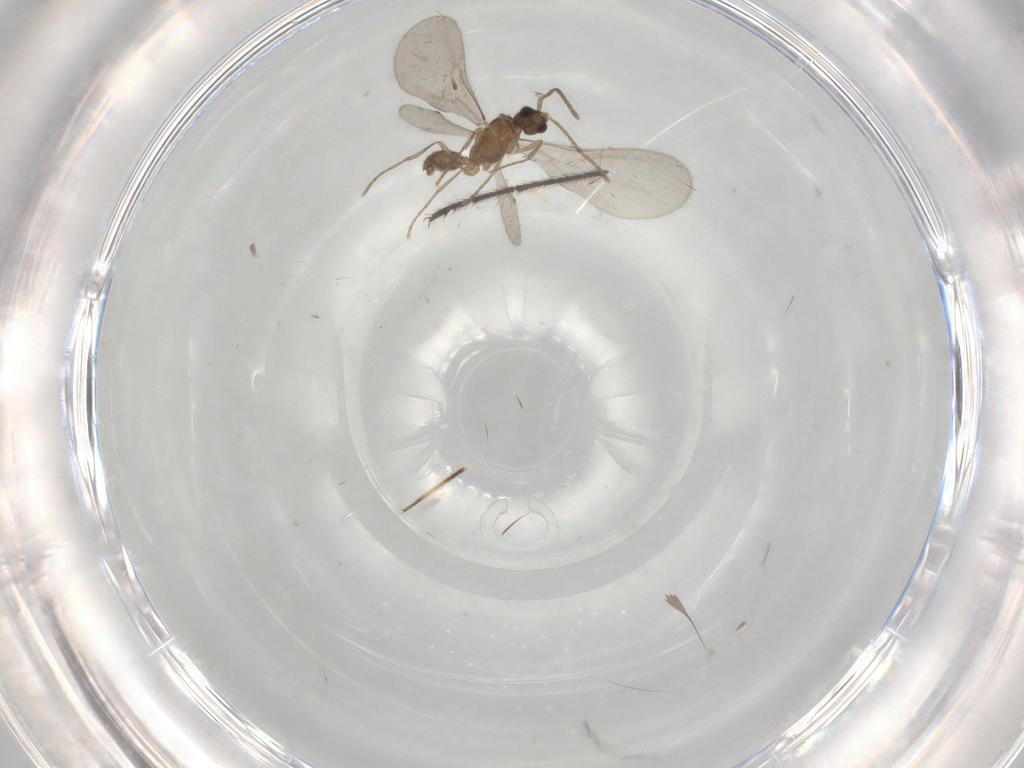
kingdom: Animalia
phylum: Arthropoda
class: Insecta
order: Hymenoptera
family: Formicidae
